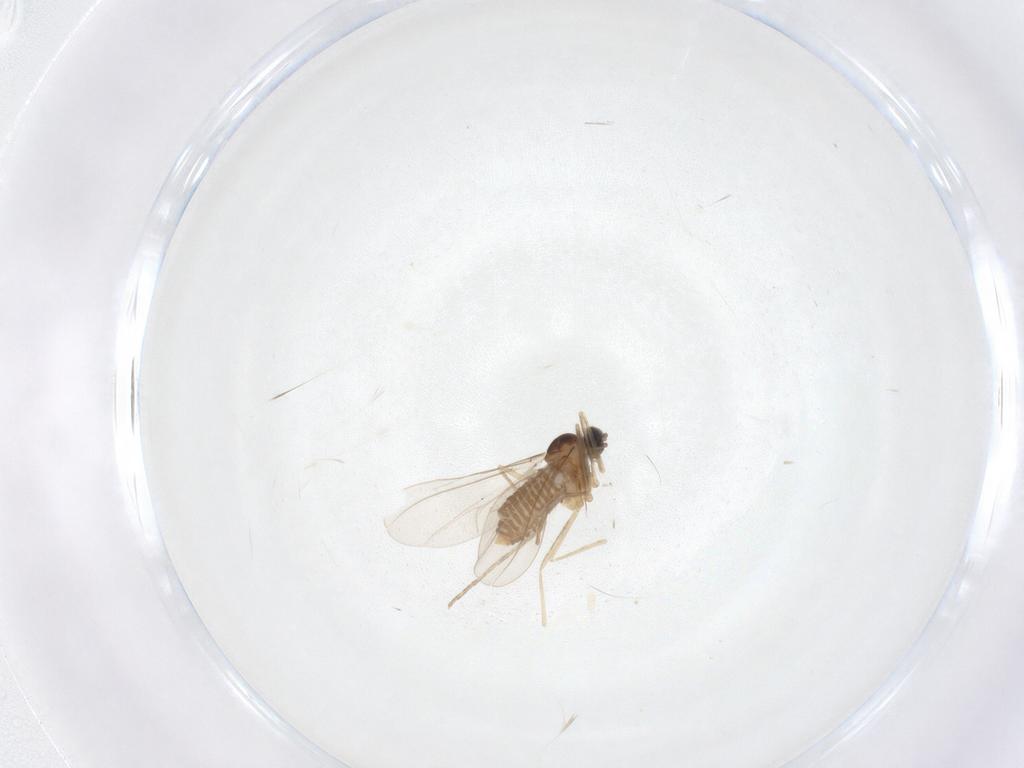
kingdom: Animalia
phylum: Arthropoda
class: Insecta
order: Diptera
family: Cecidomyiidae
